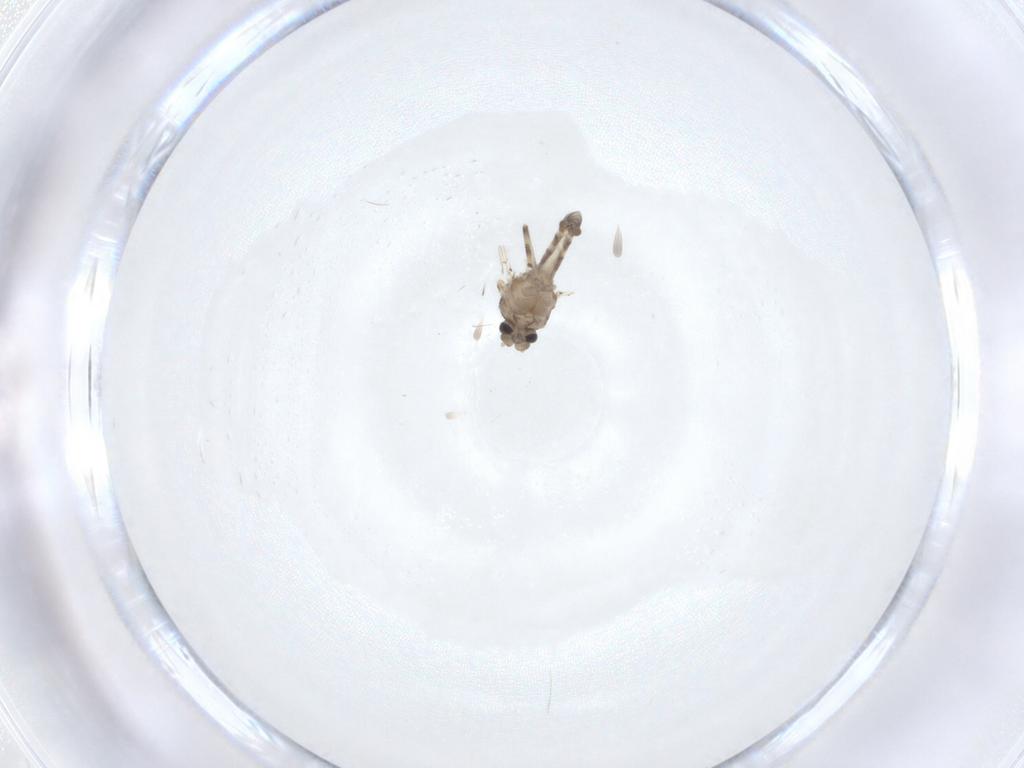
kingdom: Animalia
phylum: Arthropoda
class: Insecta
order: Diptera
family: Ceratopogonidae
